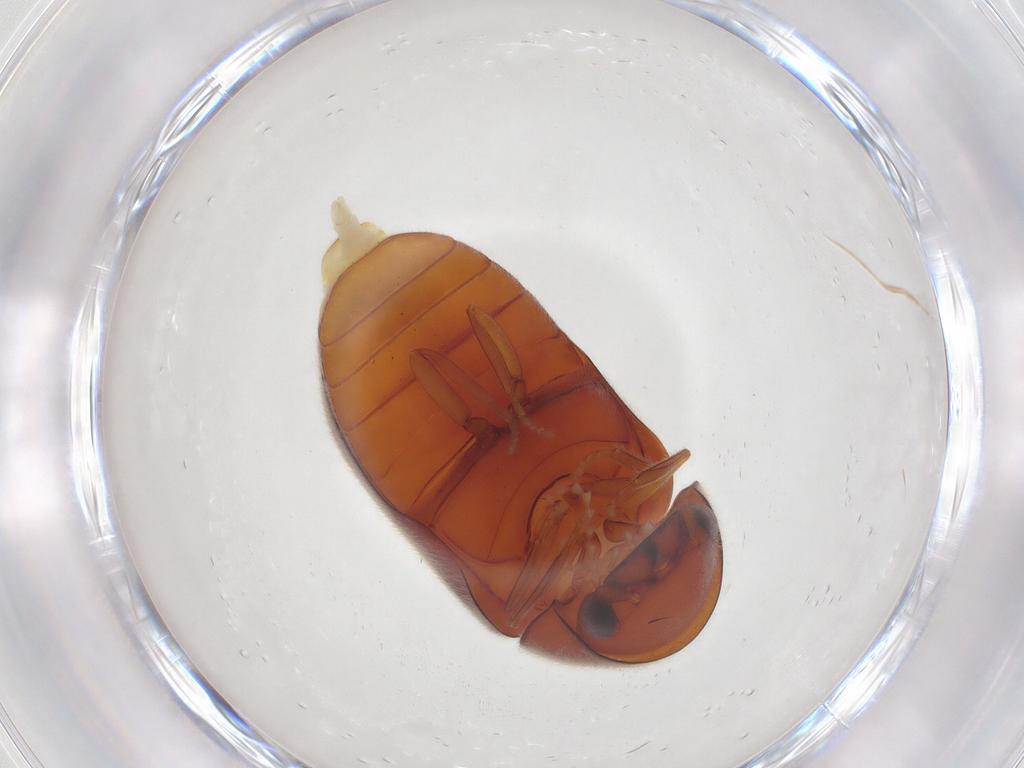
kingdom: Animalia
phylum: Arthropoda
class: Insecta
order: Coleoptera
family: Ptinidae
